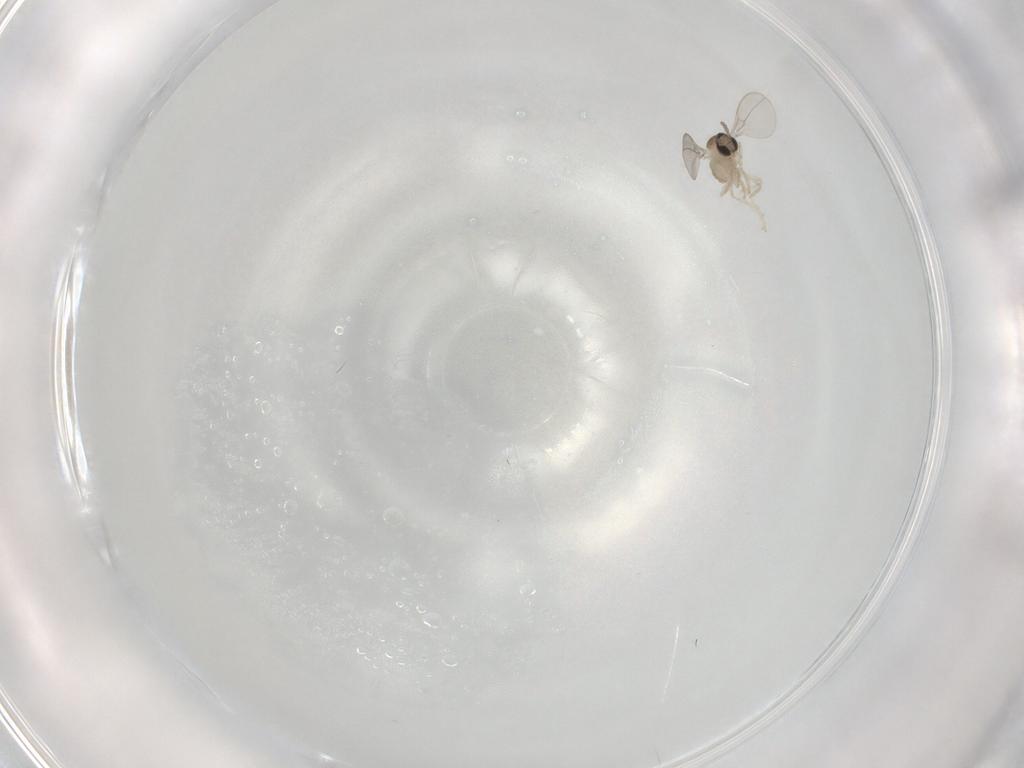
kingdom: Animalia
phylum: Arthropoda
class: Insecta
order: Diptera
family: Cecidomyiidae
